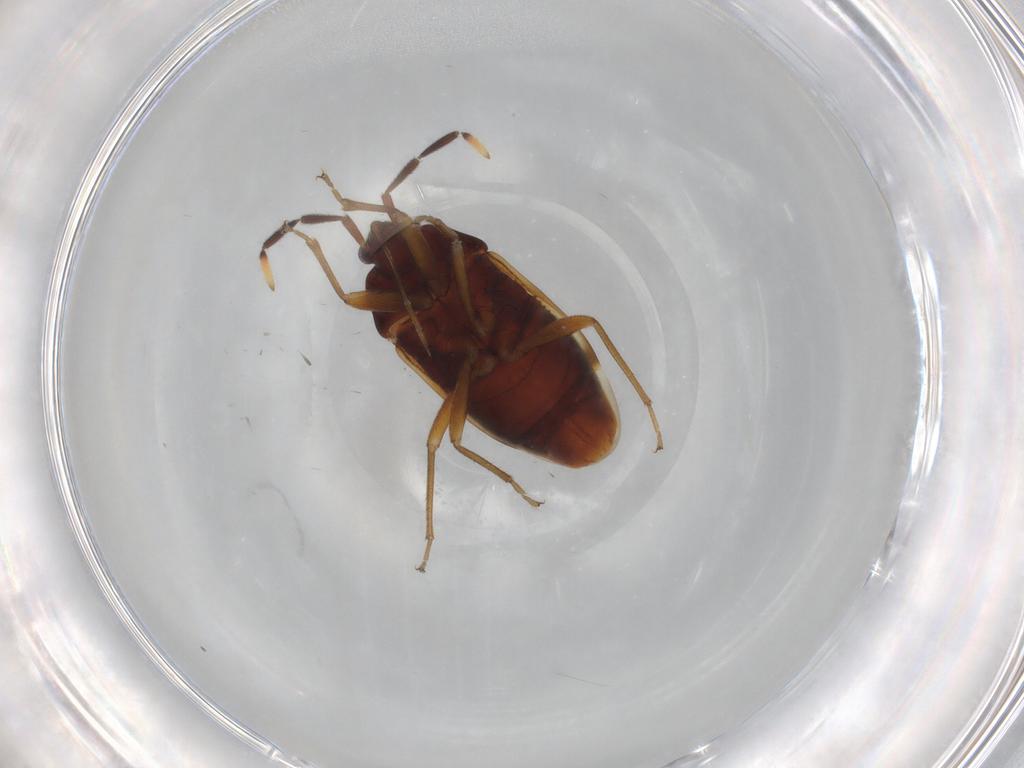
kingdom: Animalia
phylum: Arthropoda
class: Insecta
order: Hemiptera
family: Rhyparochromidae
